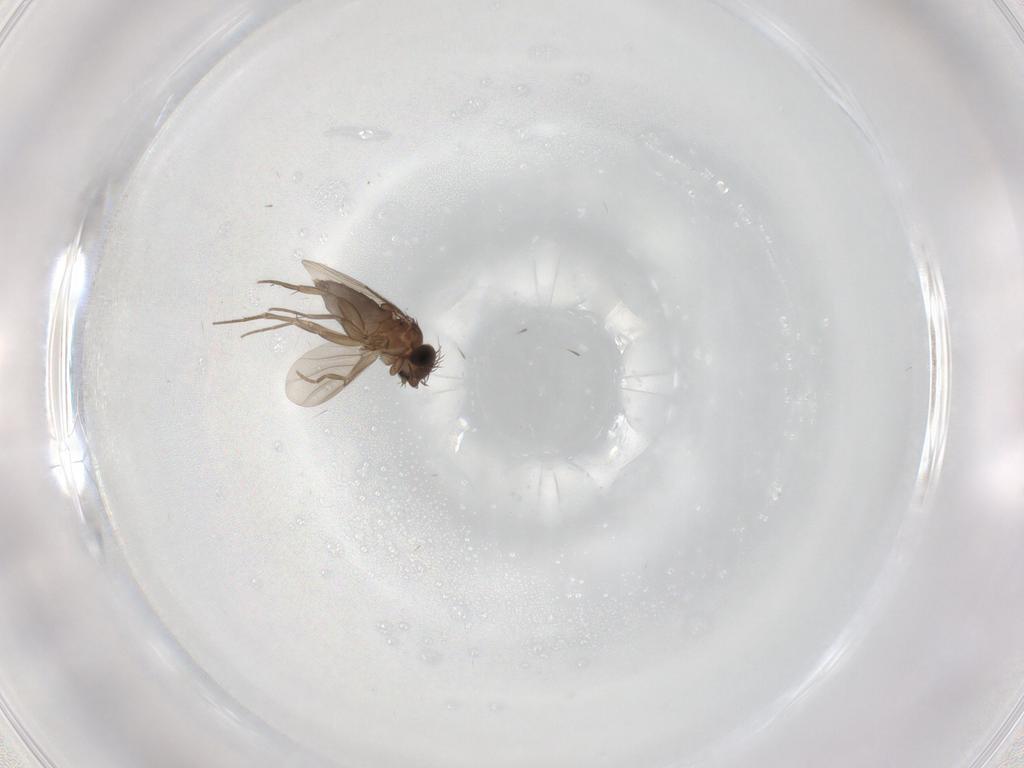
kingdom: Animalia
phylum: Arthropoda
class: Insecta
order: Diptera
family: Phoridae
